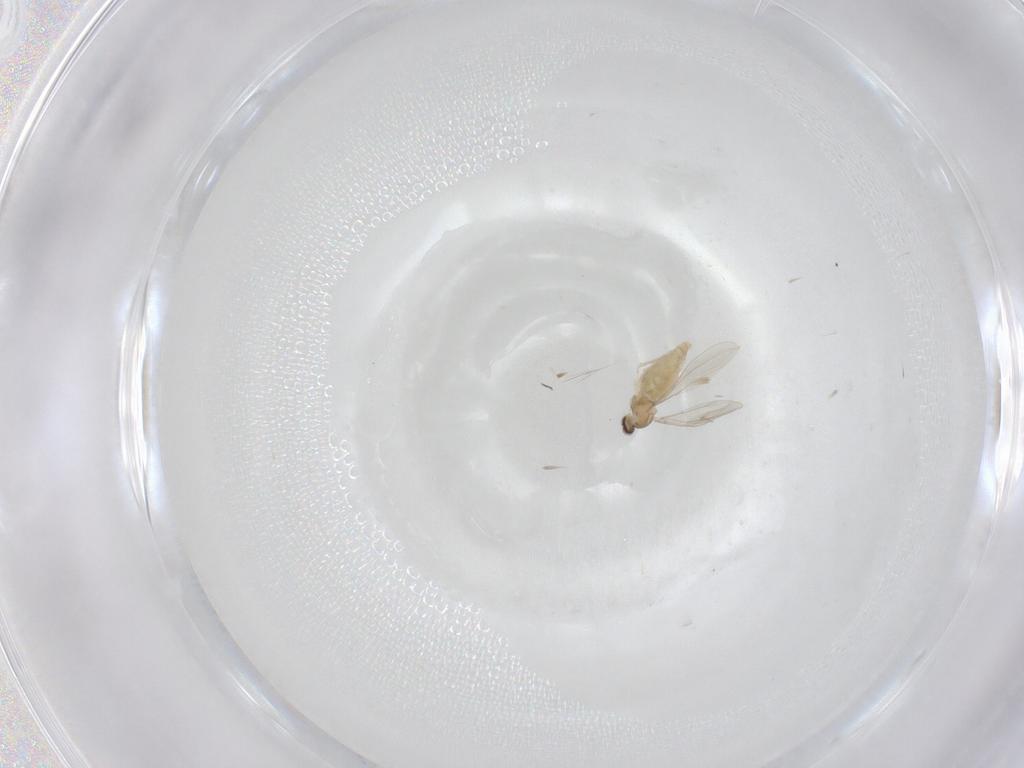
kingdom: Animalia
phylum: Arthropoda
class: Insecta
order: Diptera
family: Cecidomyiidae
